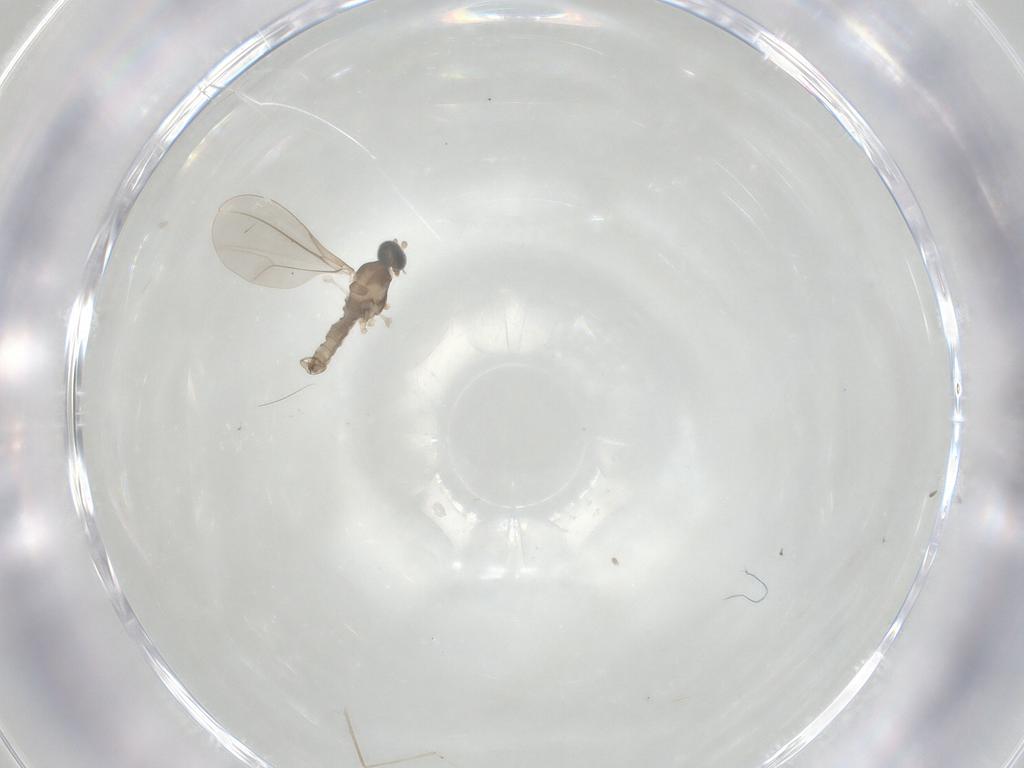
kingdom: Animalia
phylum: Arthropoda
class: Insecta
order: Diptera
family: Cecidomyiidae
